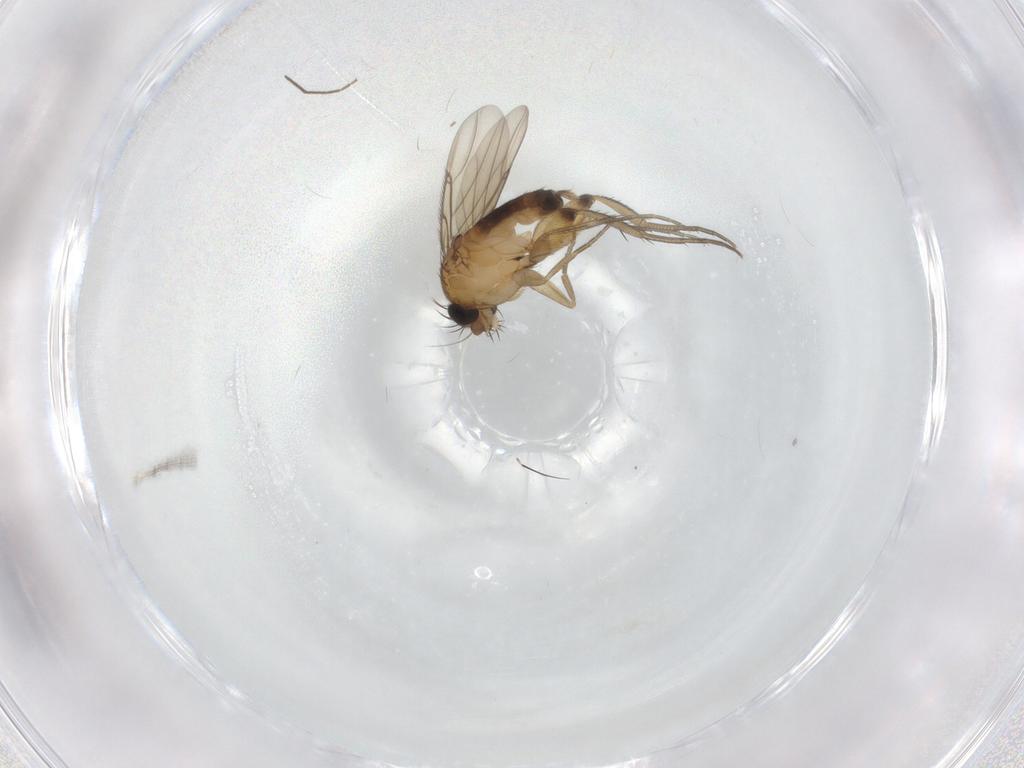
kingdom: Animalia
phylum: Arthropoda
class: Insecta
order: Diptera
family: Phoridae
